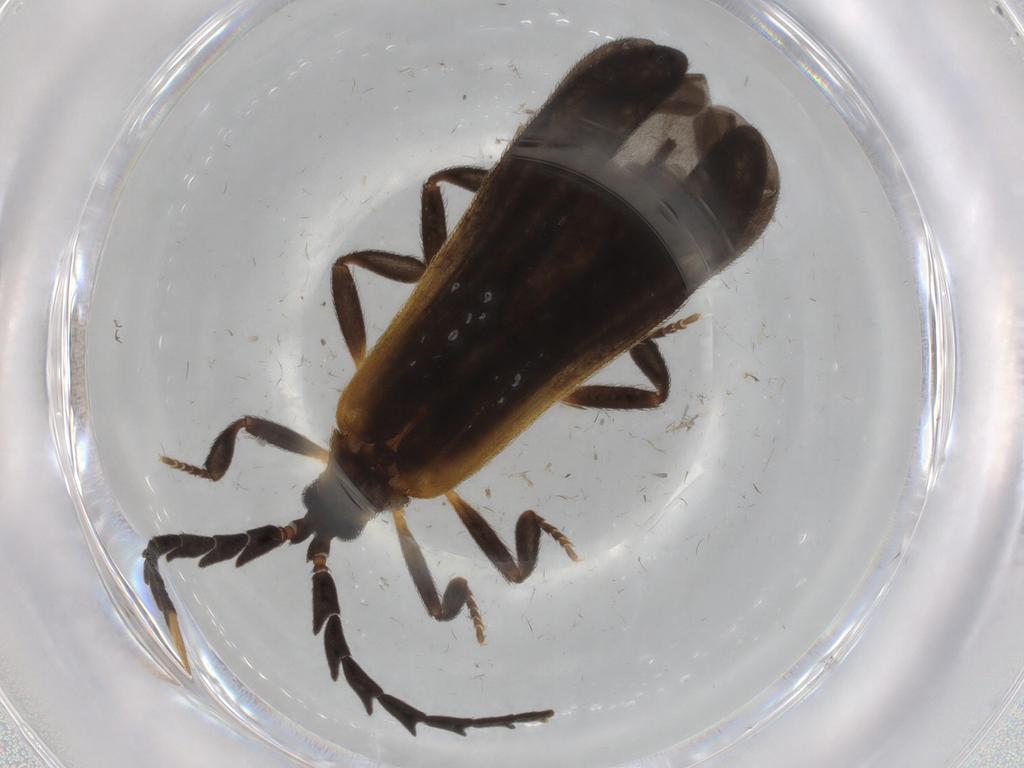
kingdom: Animalia
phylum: Arthropoda
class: Insecta
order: Coleoptera
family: Lycidae
